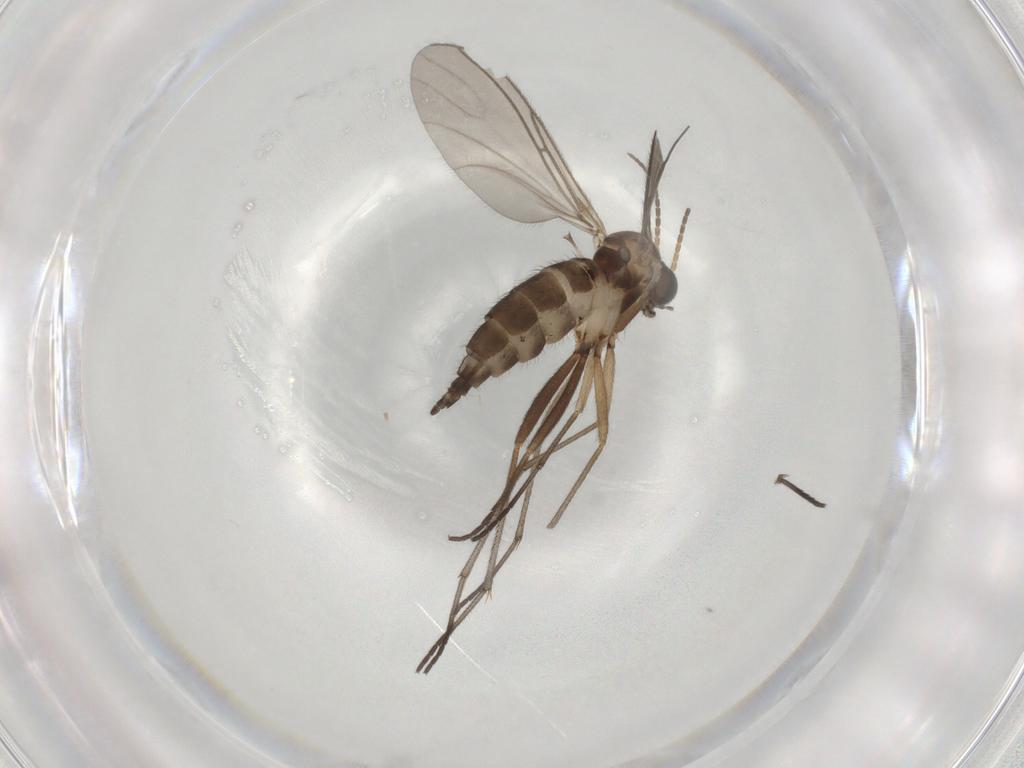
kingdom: Animalia
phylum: Arthropoda
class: Insecta
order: Diptera
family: Sciaridae
